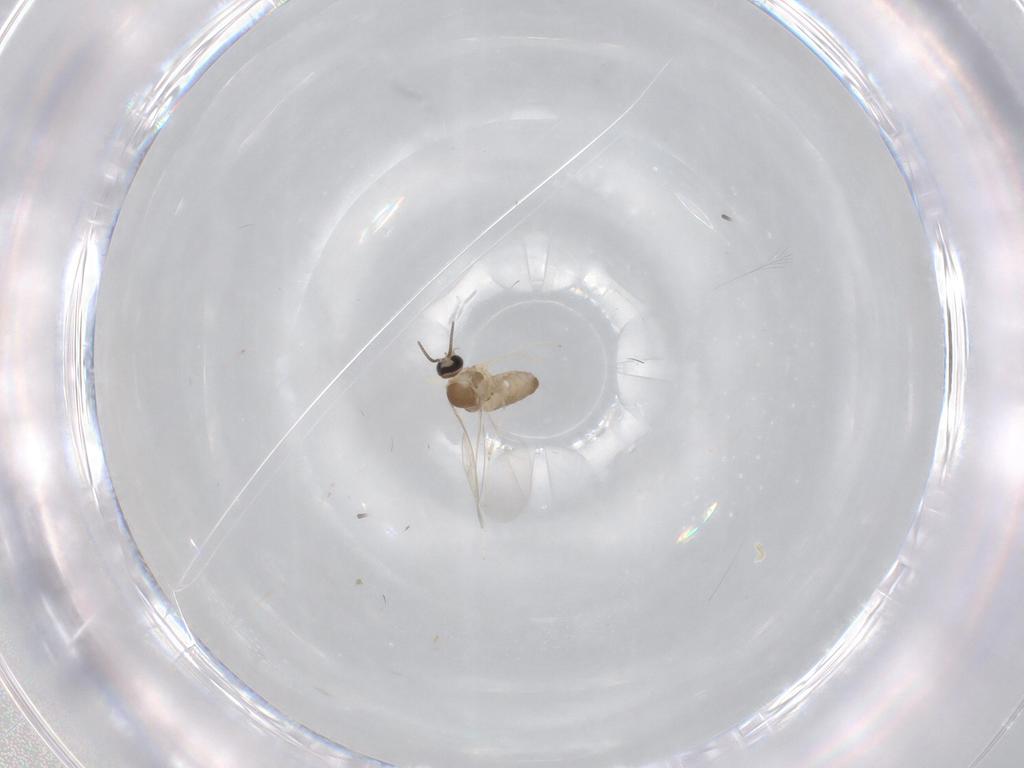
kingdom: Animalia
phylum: Arthropoda
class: Insecta
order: Diptera
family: Cecidomyiidae
